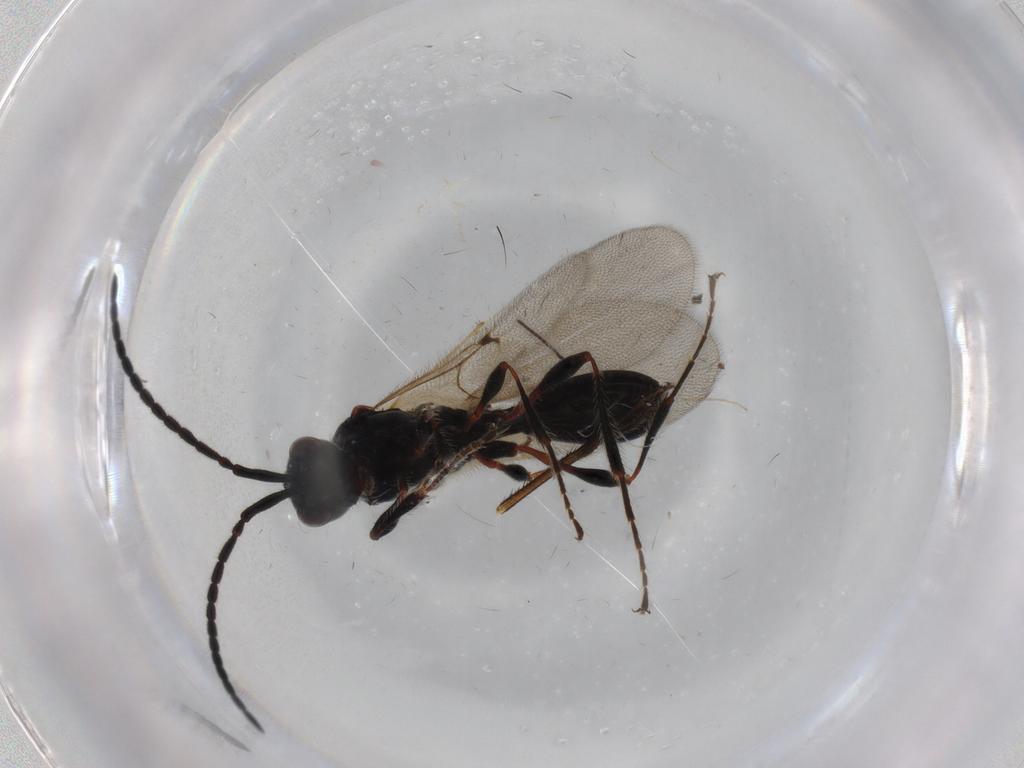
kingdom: Animalia
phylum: Arthropoda
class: Insecta
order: Hymenoptera
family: Diapriidae
